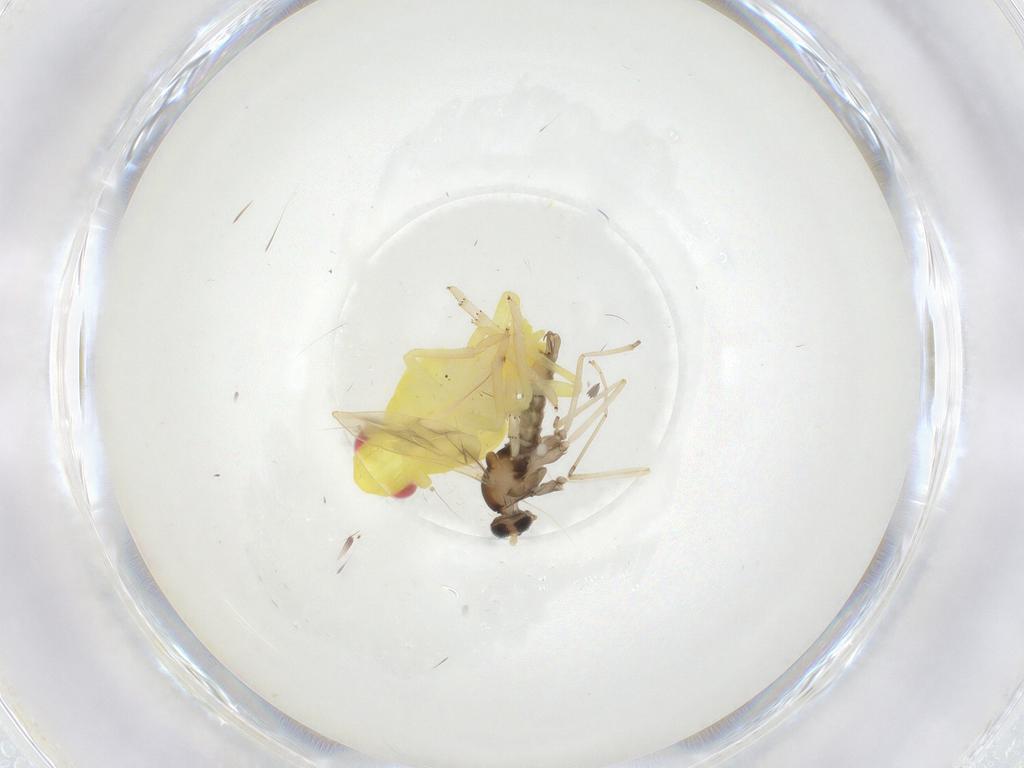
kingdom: Animalia
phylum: Arthropoda
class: Insecta
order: Diptera
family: Cecidomyiidae
